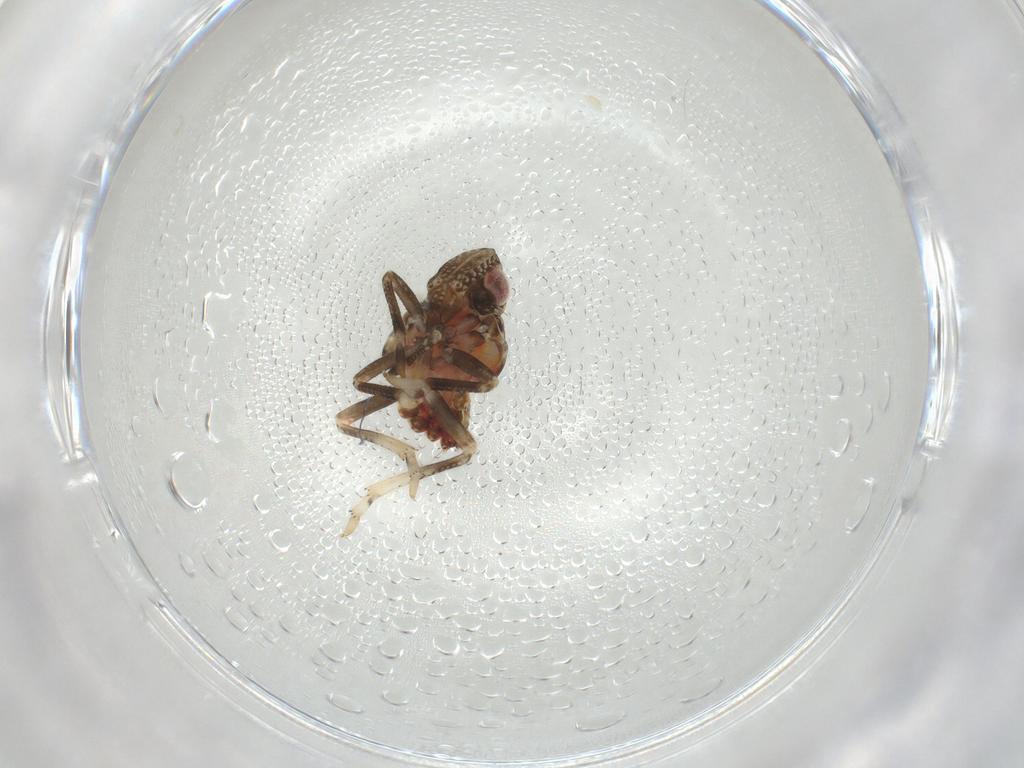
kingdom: Animalia
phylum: Arthropoda
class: Insecta
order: Hemiptera
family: Tropiduchidae
